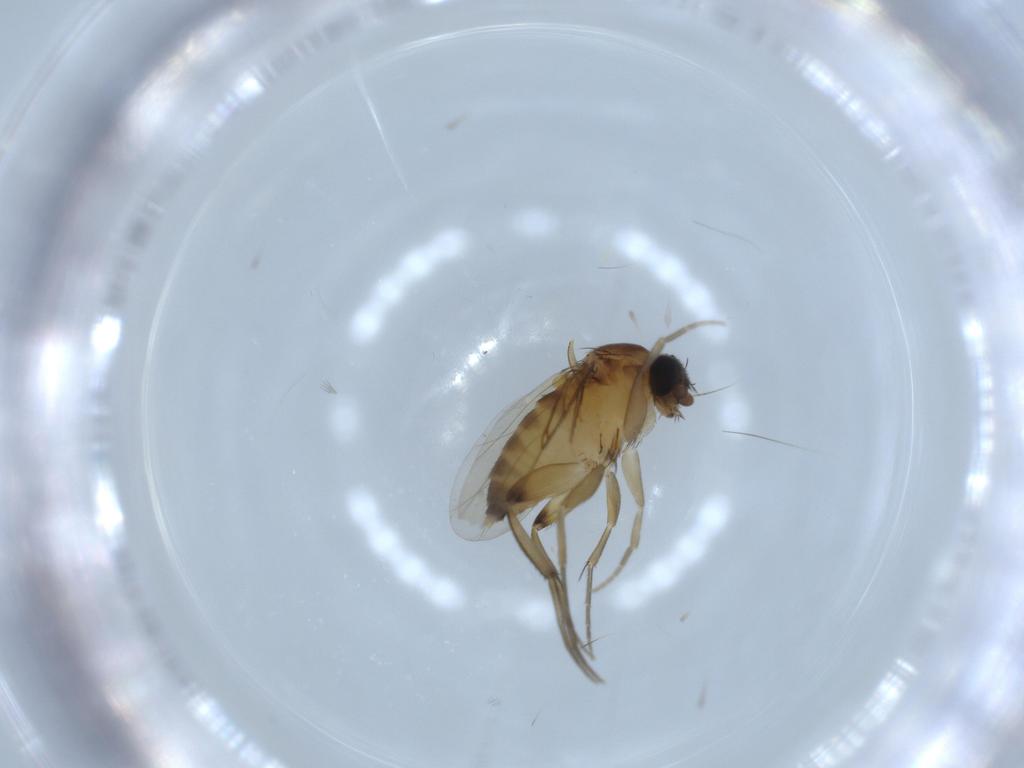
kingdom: Animalia
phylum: Arthropoda
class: Insecta
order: Diptera
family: Phoridae
